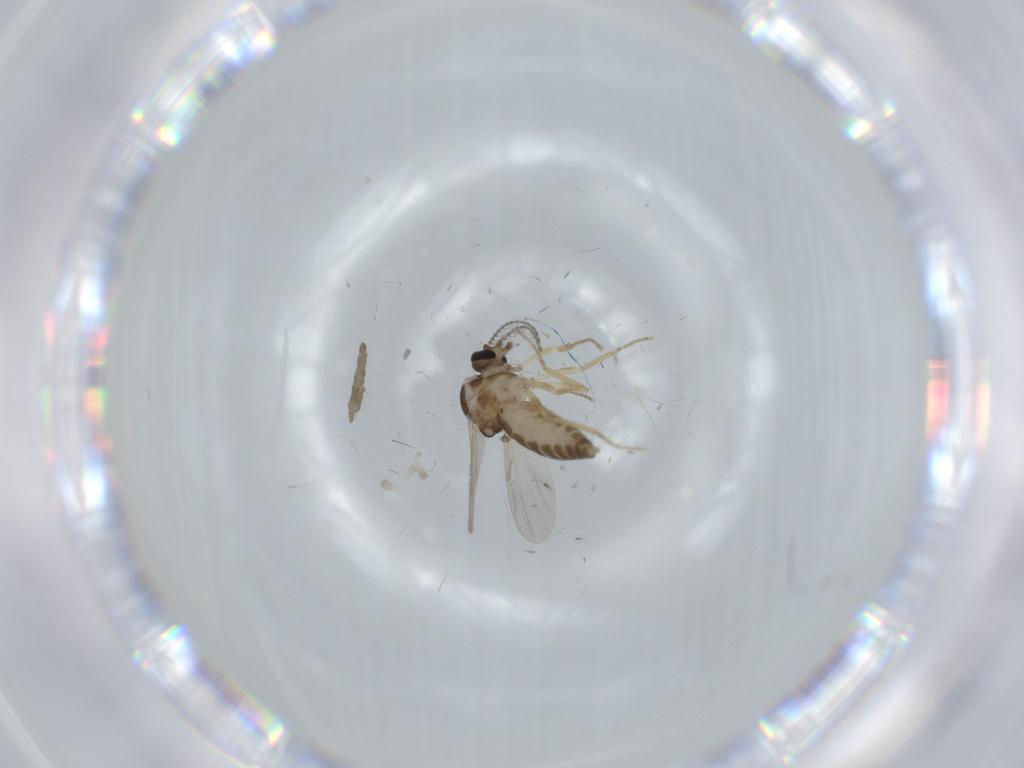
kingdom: Animalia
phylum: Arthropoda
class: Insecta
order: Diptera
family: Ceratopogonidae
